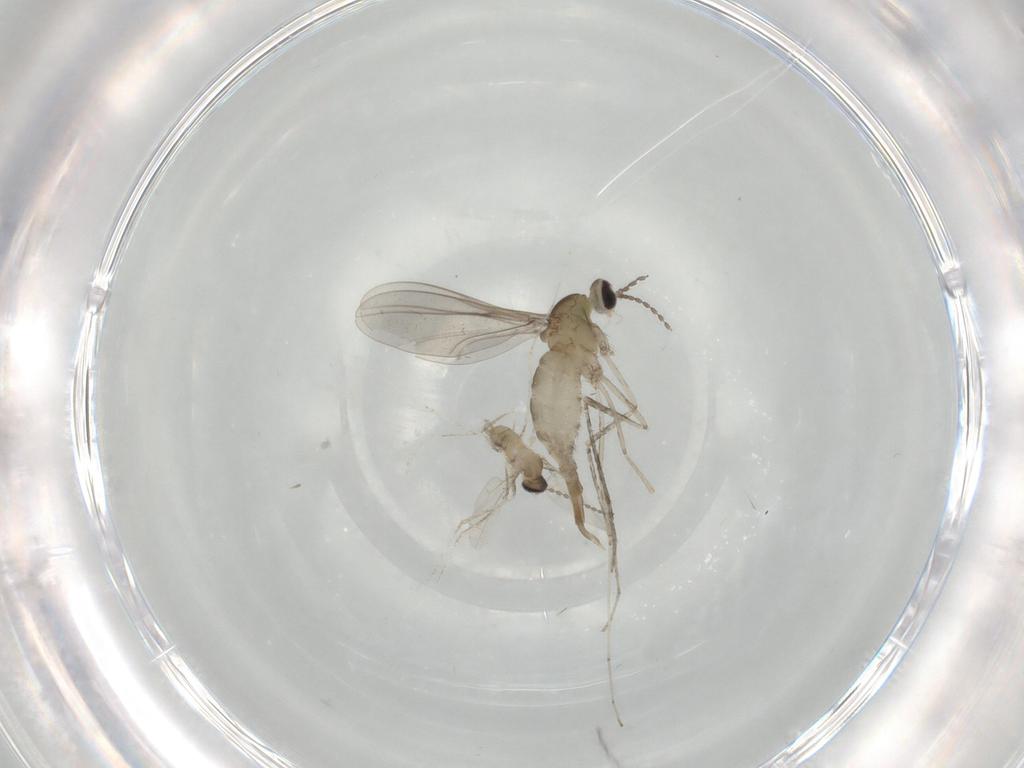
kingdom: Animalia
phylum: Arthropoda
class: Insecta
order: Diptera
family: Cecidomyiidae
